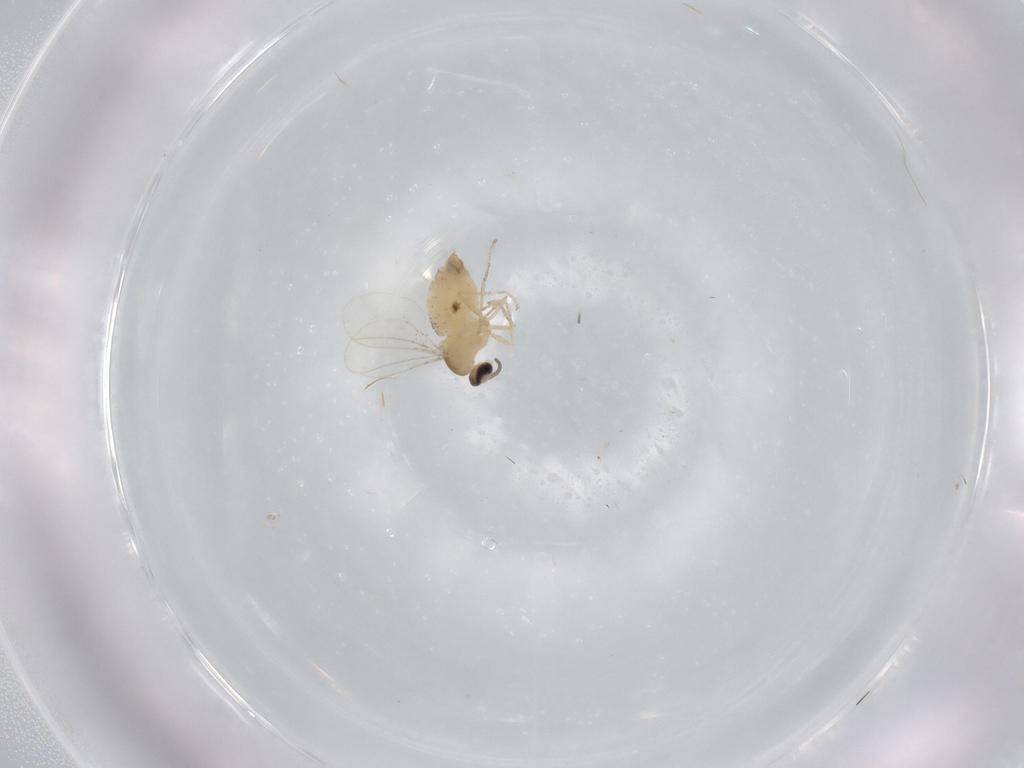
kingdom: Animalia
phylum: Arthropoda
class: Insecta
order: Diptera
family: Cecidomyiidae
